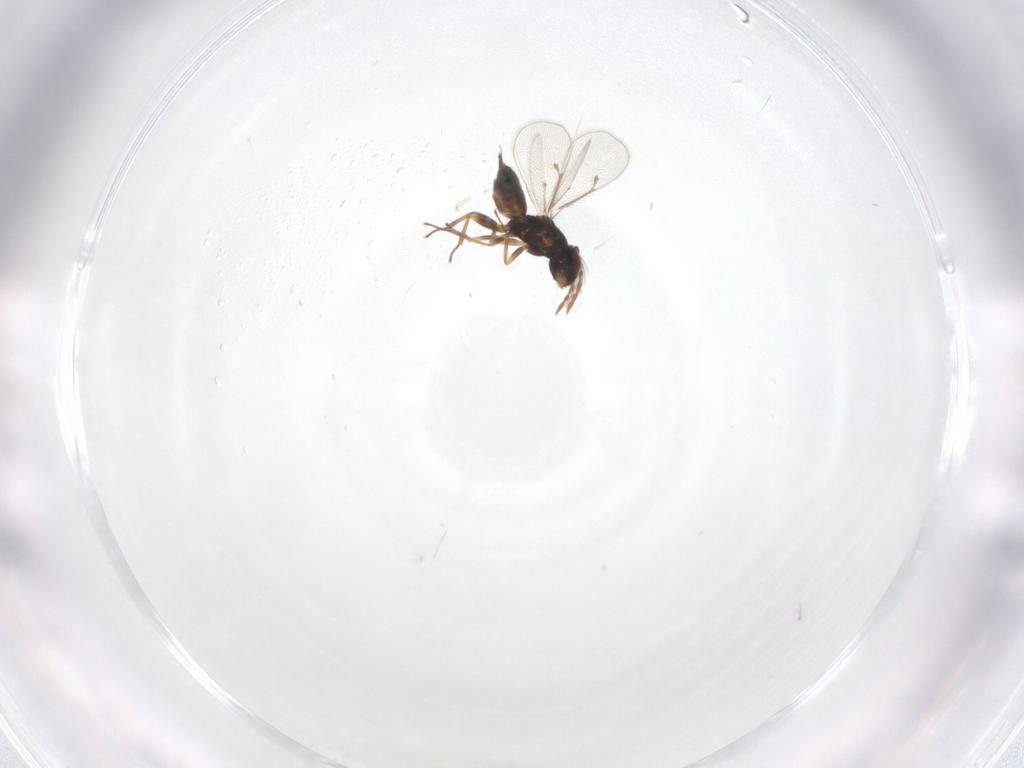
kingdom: Animalia
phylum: Arthropoda
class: Insecta
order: Hymenoptera
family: Eulophidae
